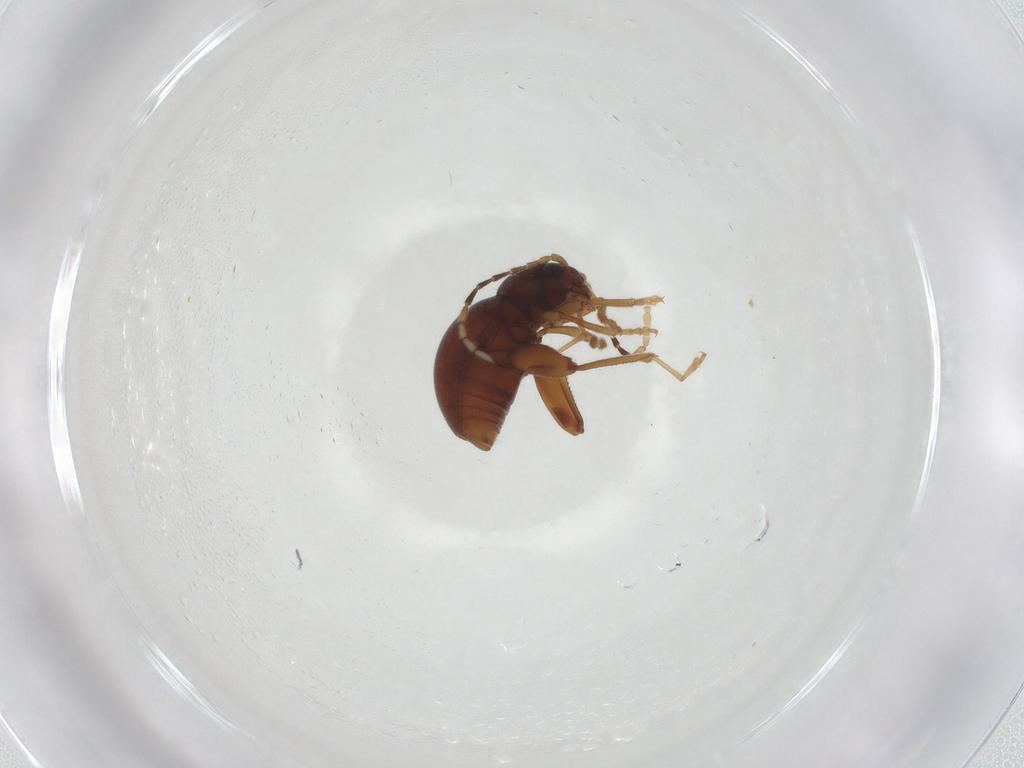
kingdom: Animalia
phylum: Arthropoda
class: Insecta
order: Coleoptera
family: Chrysomelidae
